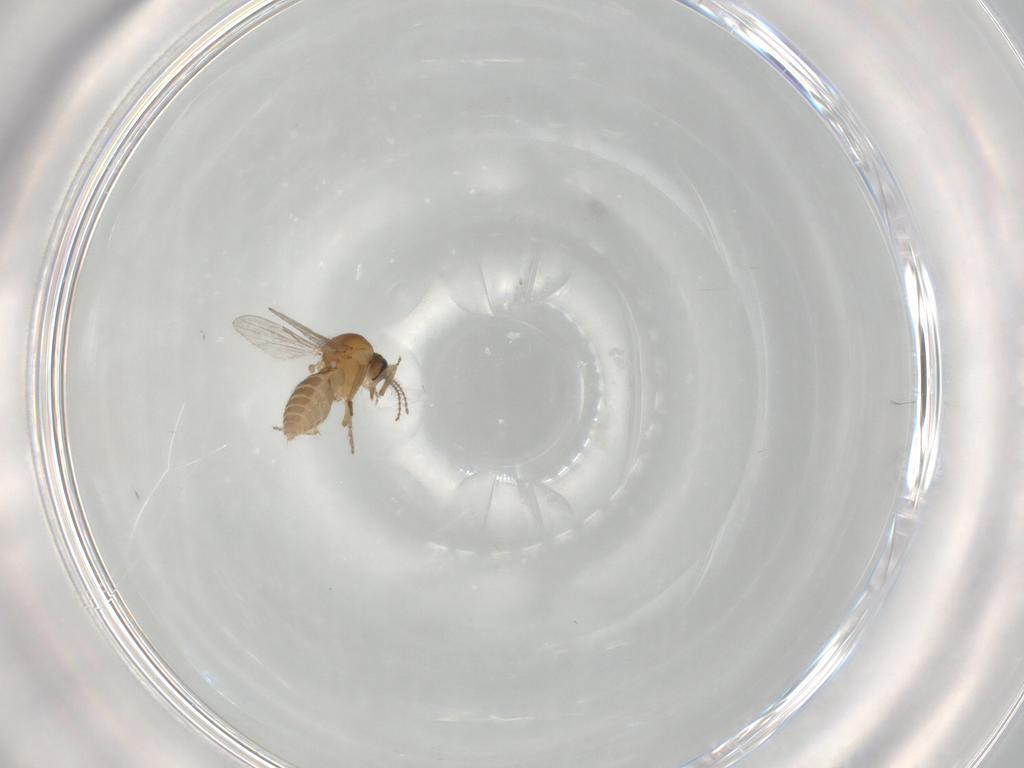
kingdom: Animalia
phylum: Arthropoda
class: Insecta
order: Diptera
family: Ceratopogonidae
